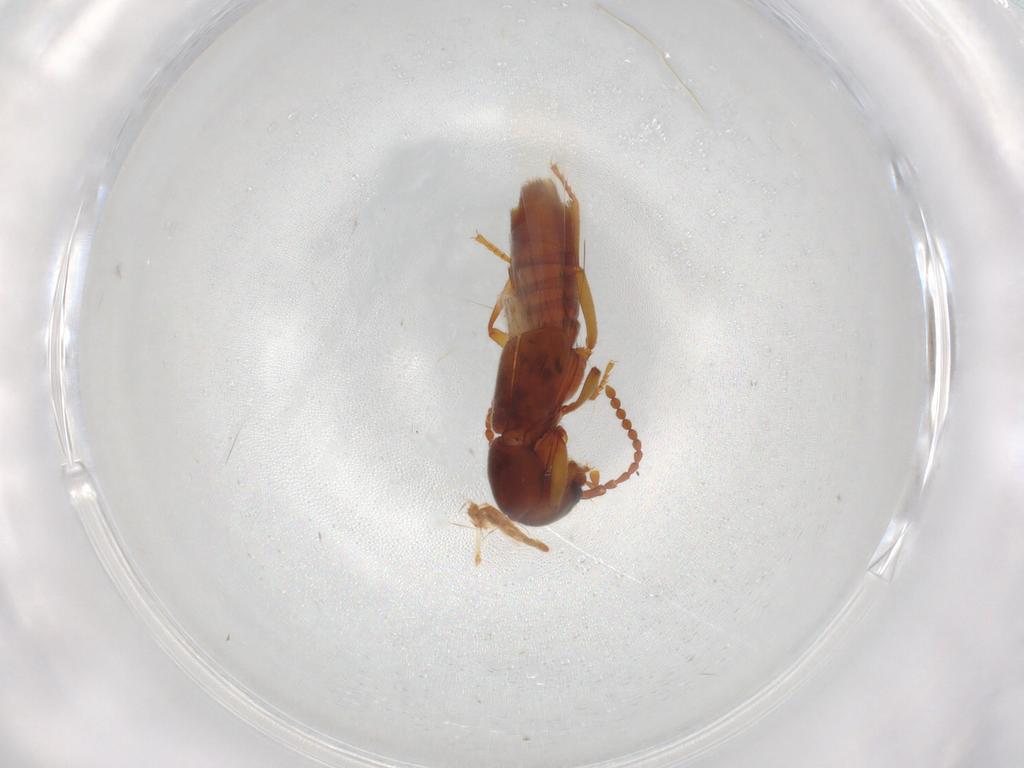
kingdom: Animalia
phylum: Arthropoda
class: Insecta
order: Coleoptera
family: Staphylinidae
